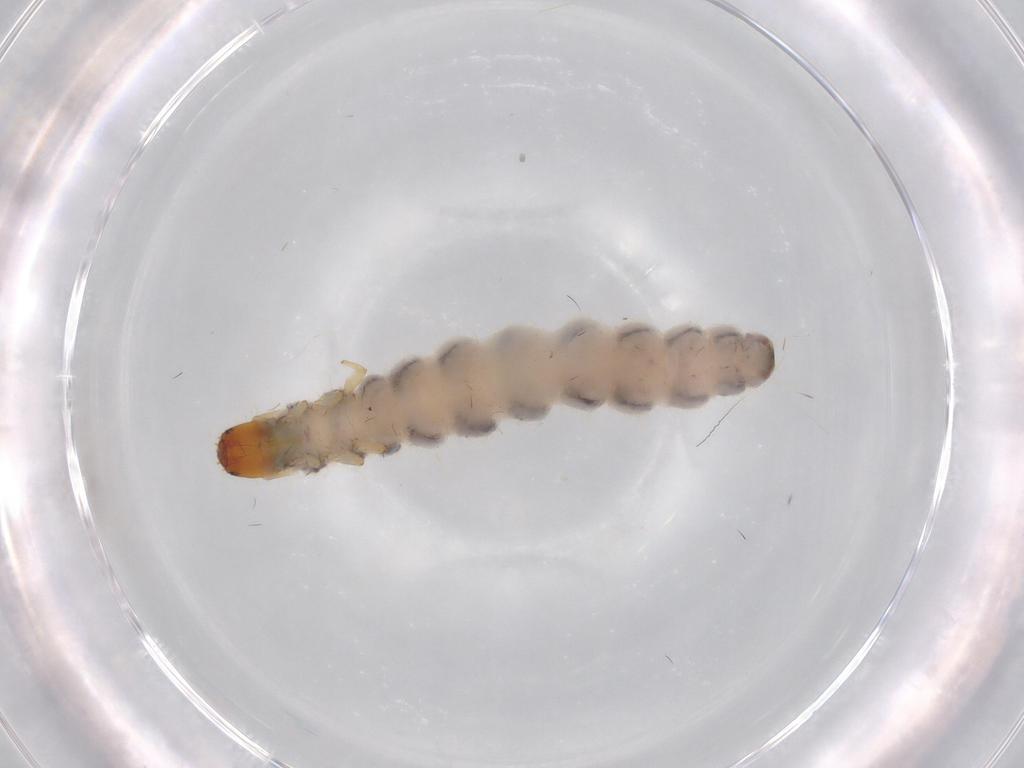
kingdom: Animalia
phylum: Arthropoda
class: Insecta
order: Coleoptera
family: Cleridae
